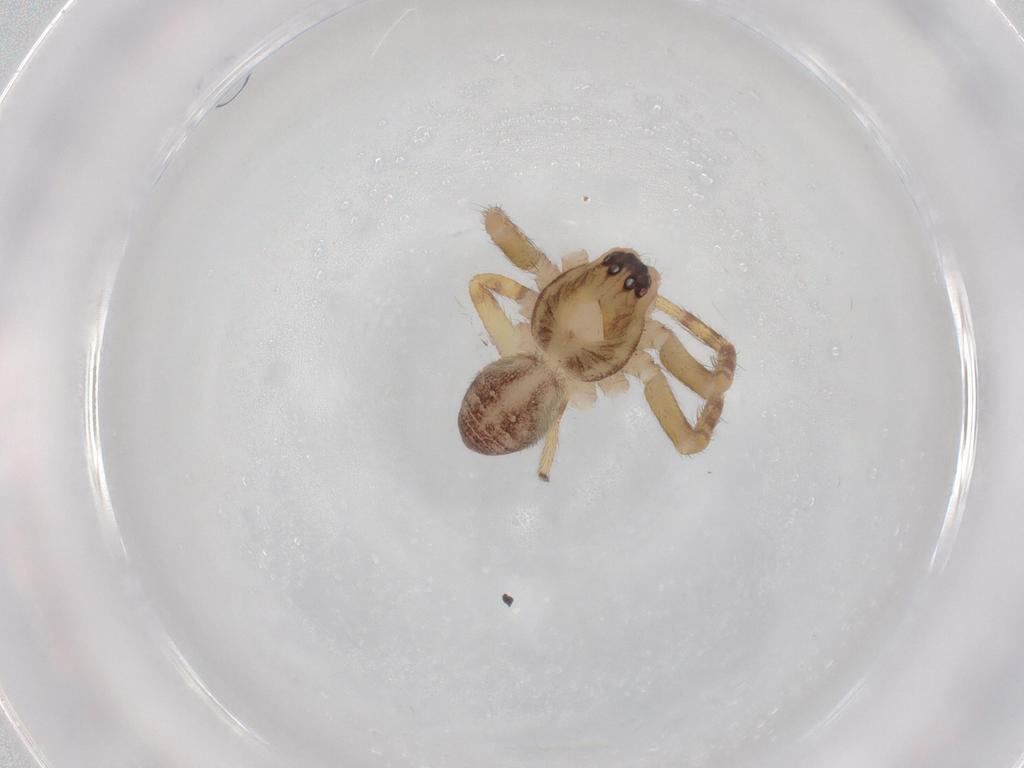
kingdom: Animalia
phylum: Arthropoda
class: Arachnida
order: Araneae
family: Corinnidae
